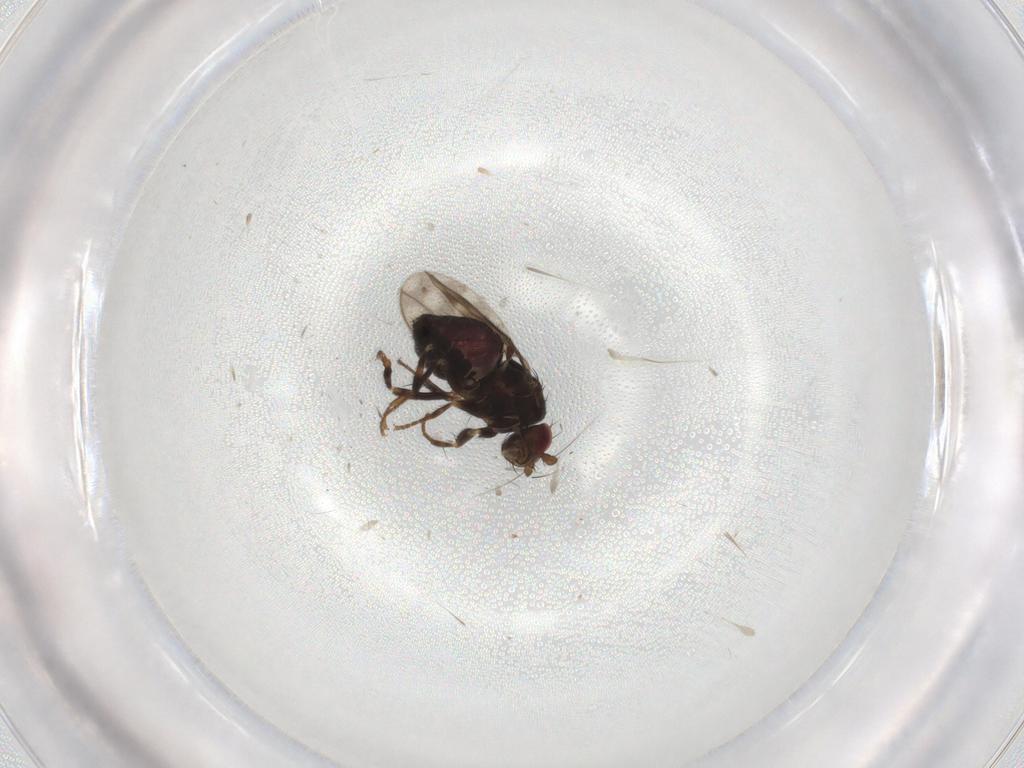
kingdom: Animalia
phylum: Arthropoda
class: Insecta
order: Diptera
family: Sphaeroceridae
